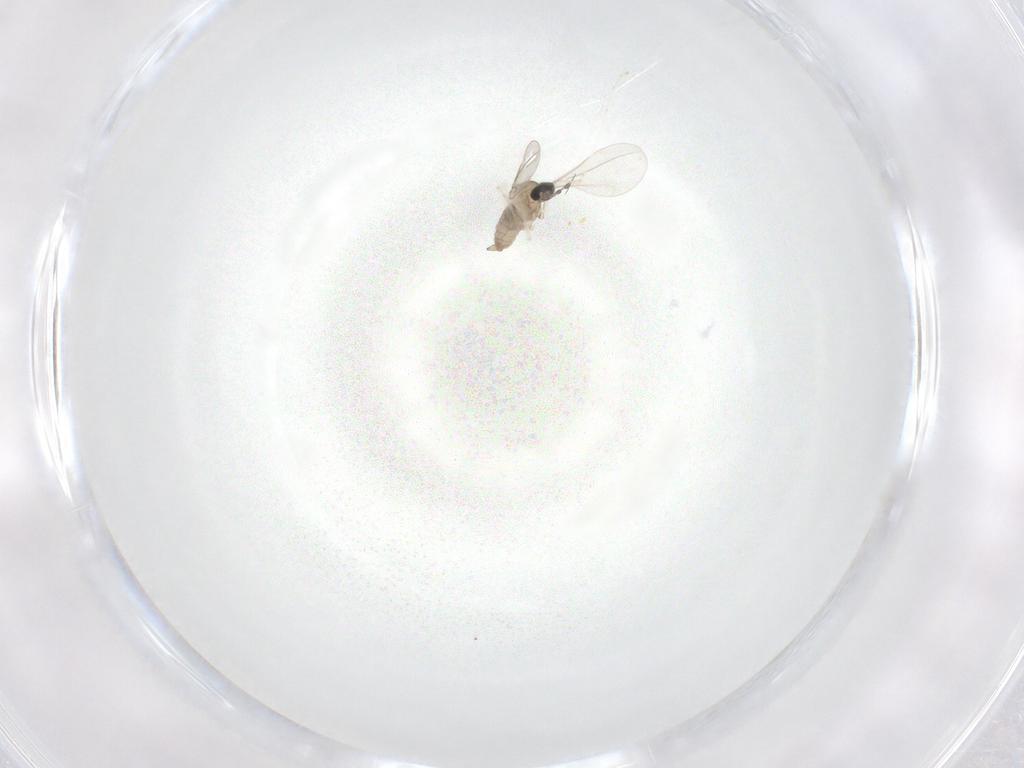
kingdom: Animalia
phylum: Arthropoda
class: Insecta
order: Diptera
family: Cecidomyiidae
